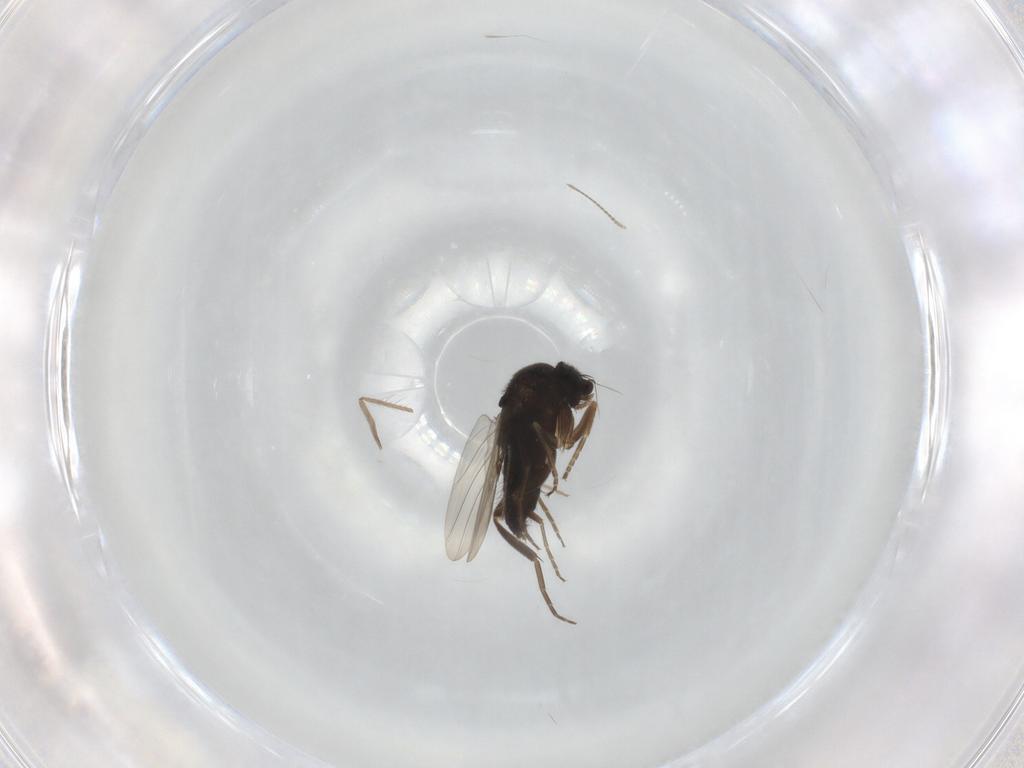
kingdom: Animalia
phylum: Arthropoda
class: Insecta
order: Diptera
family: Phoridae
